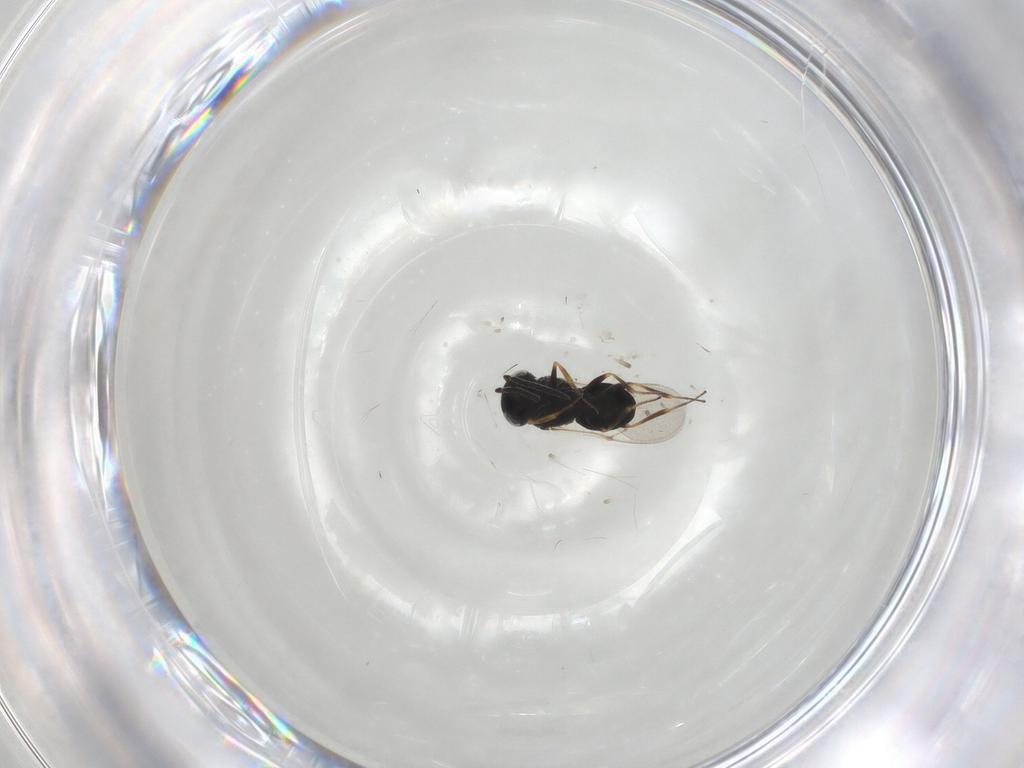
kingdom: Animalia
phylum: Arthropoda
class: Insecta
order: Hymenoptera
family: Scelionidae
